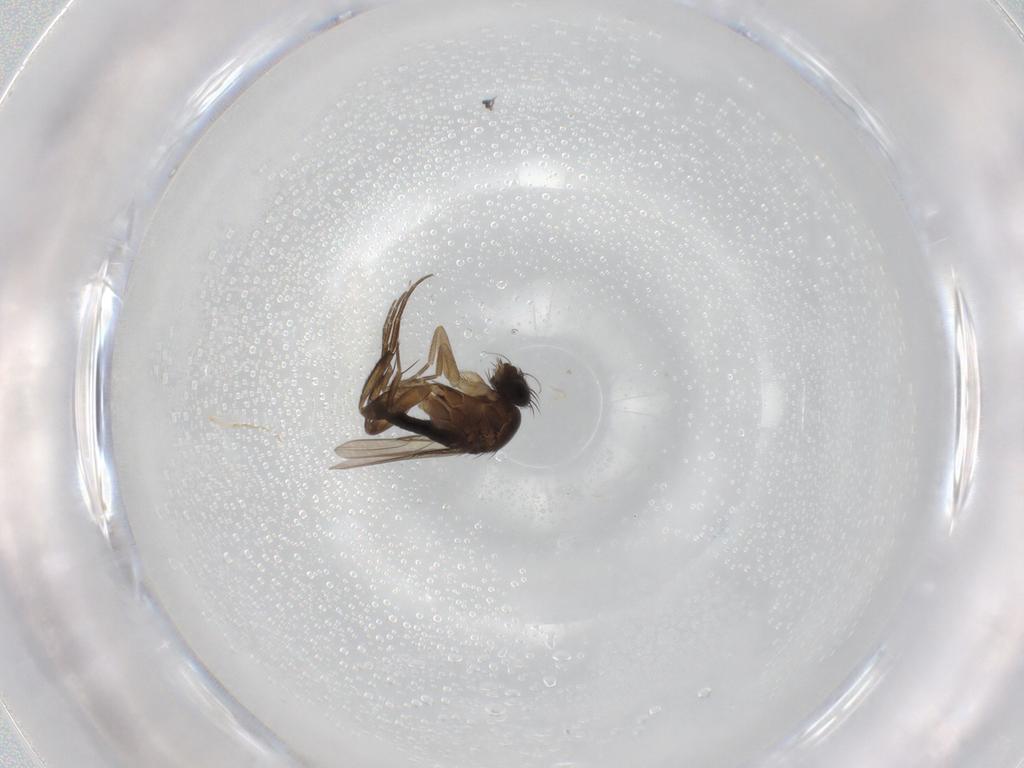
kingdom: Animalia
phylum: Arthropoda
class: Insecta
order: Diptera
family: Phoridae
